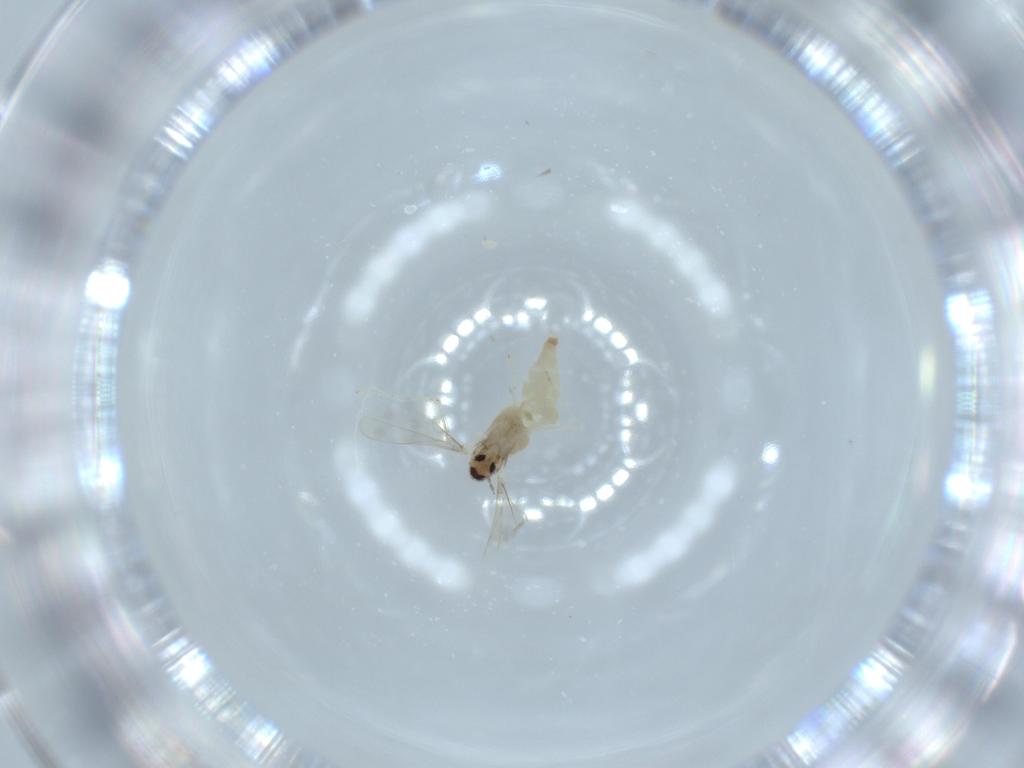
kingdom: Animalia
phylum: Arthropoda
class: Insecta
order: Diptera
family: Cecidomyiidae
